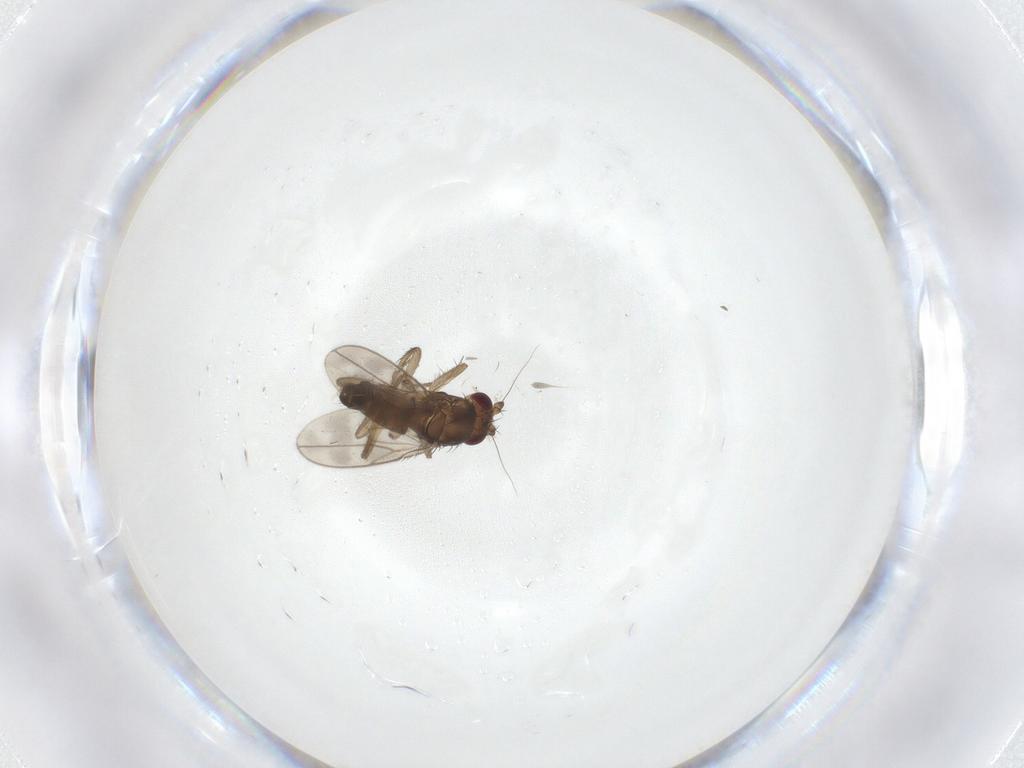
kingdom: Animalia
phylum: Arthropoda
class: Insecta
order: Diptera
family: Sphaeroceridae
